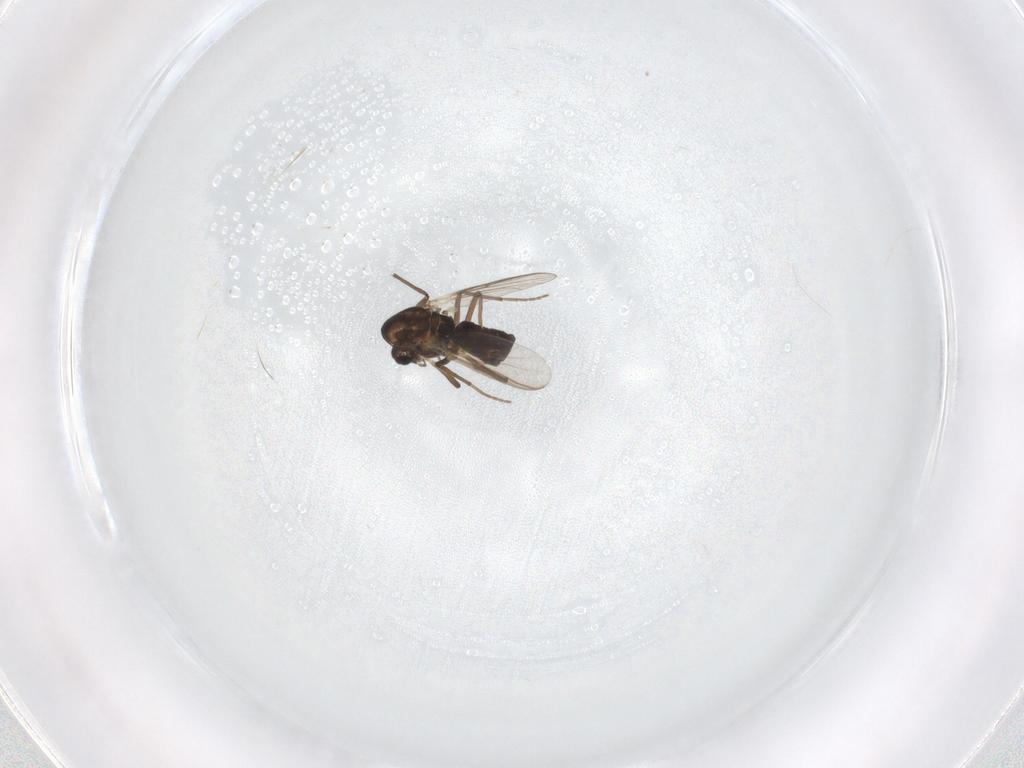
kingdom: Animalia
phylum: Arthropoda
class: Insecta
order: Diptera
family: Chironomidae
